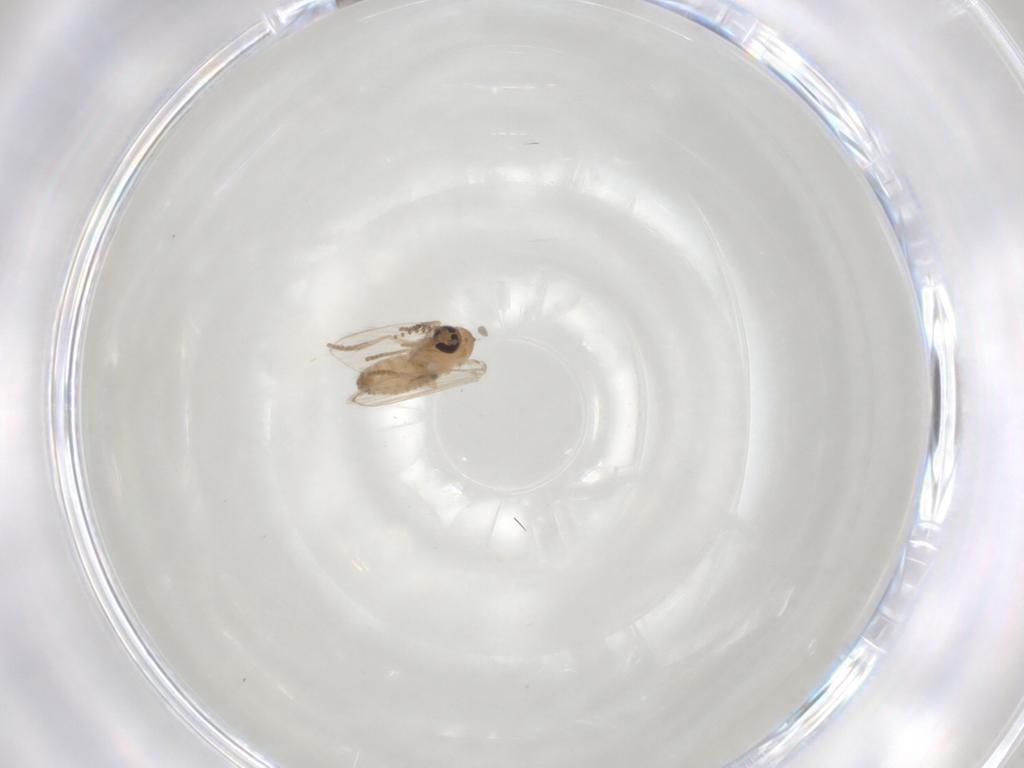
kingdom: Animalia
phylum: Arthropoda
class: Insecta
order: Diptera
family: Psychodidae
